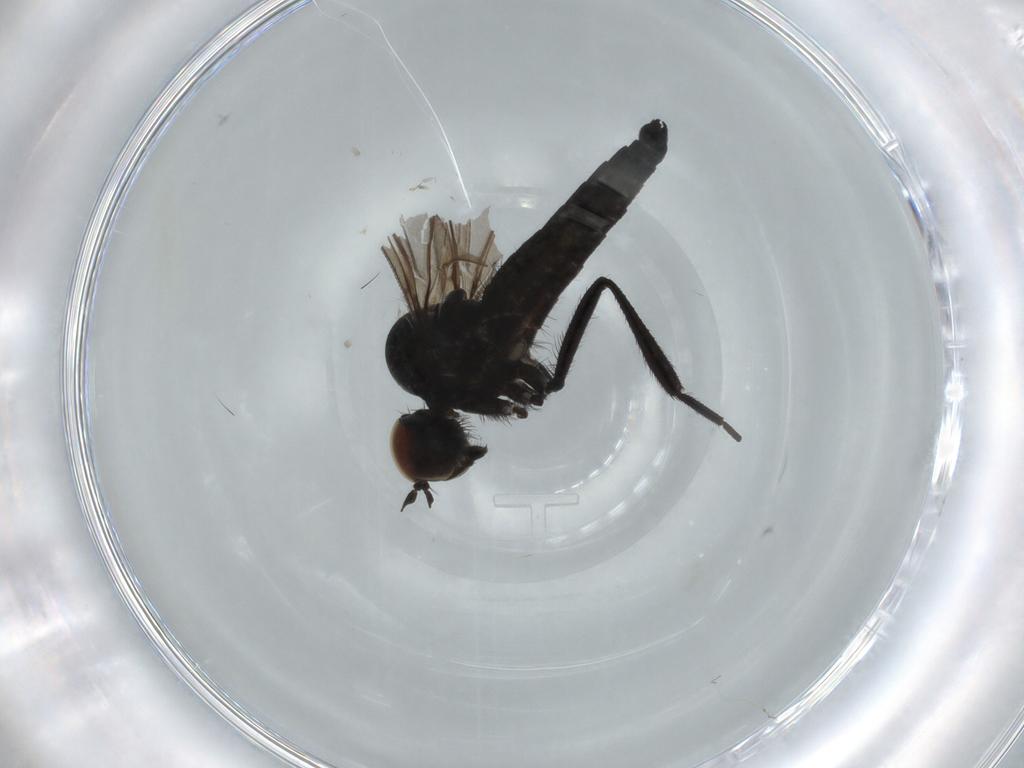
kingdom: Animalia
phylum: Arthropoda
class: Insecta
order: Diptera
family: Hybotidae
